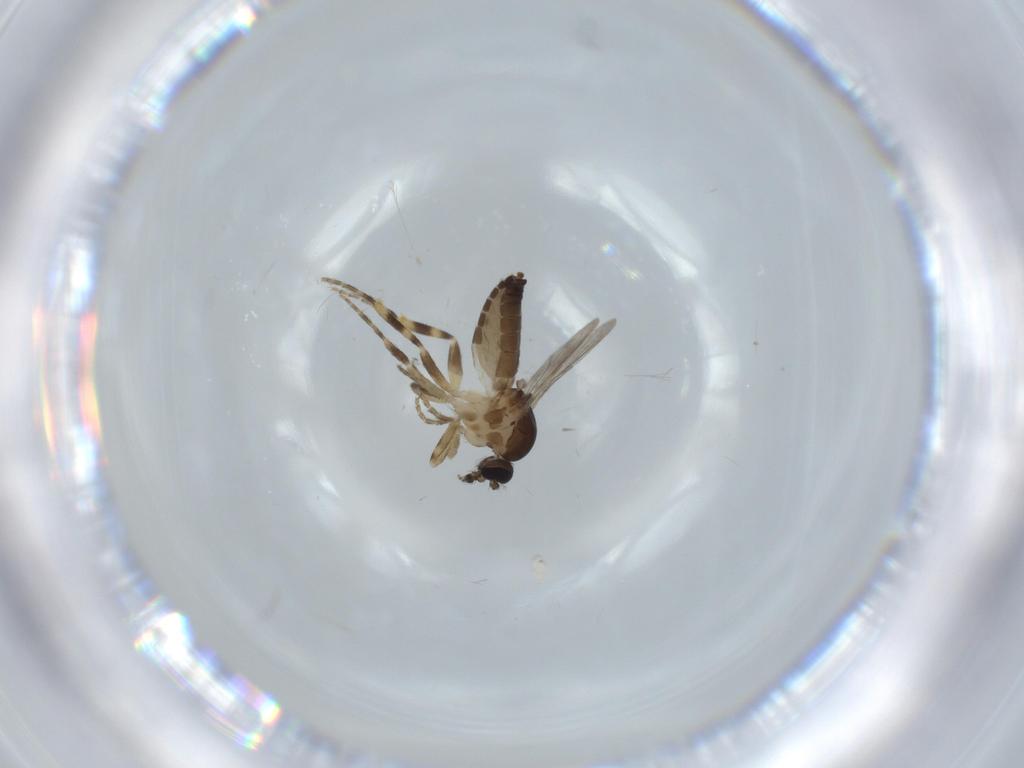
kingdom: Animalia
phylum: Arthropoda
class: Insecta
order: Diptera
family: Ceratopogonidae
